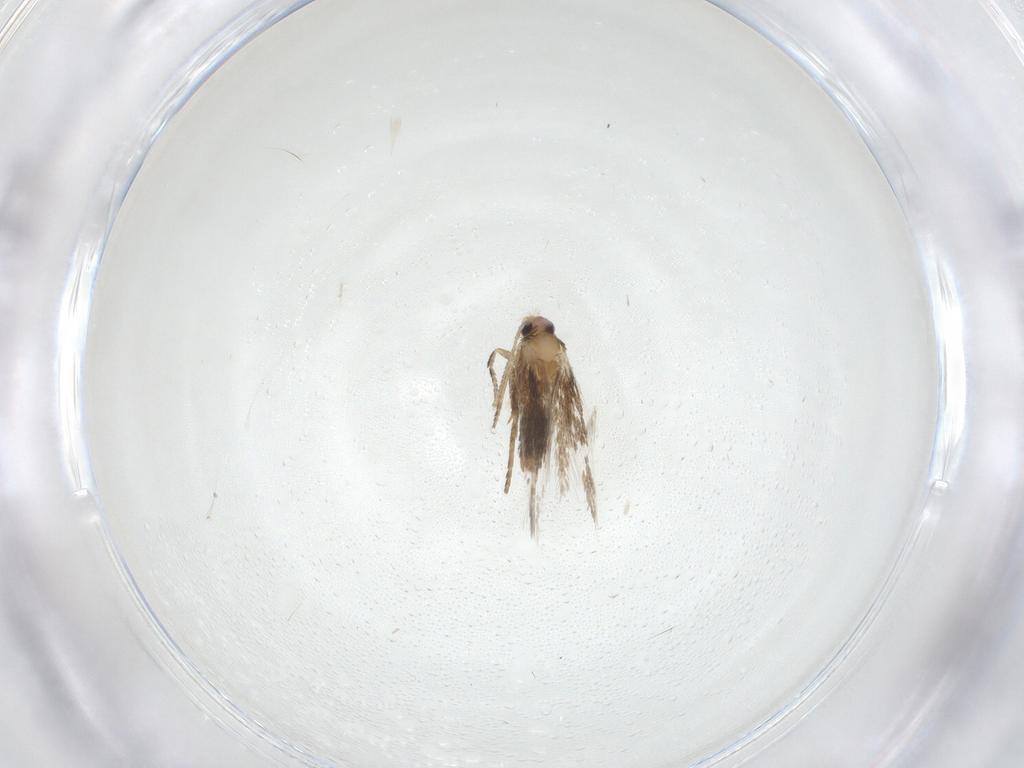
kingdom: Animalia
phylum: Arthropoda
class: Insecta
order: Lepidoptera
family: Nepticulidae
